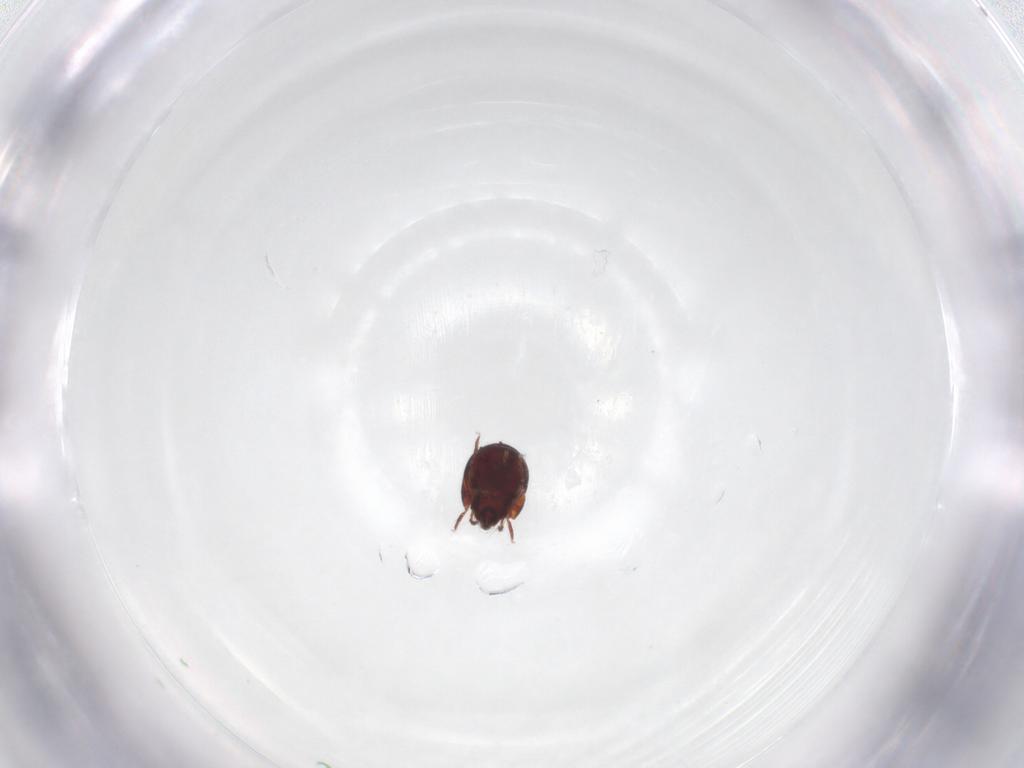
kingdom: Animalia
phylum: Arthropoda
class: Arachnida
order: Sarcoptiformes
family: Humerobatidae
